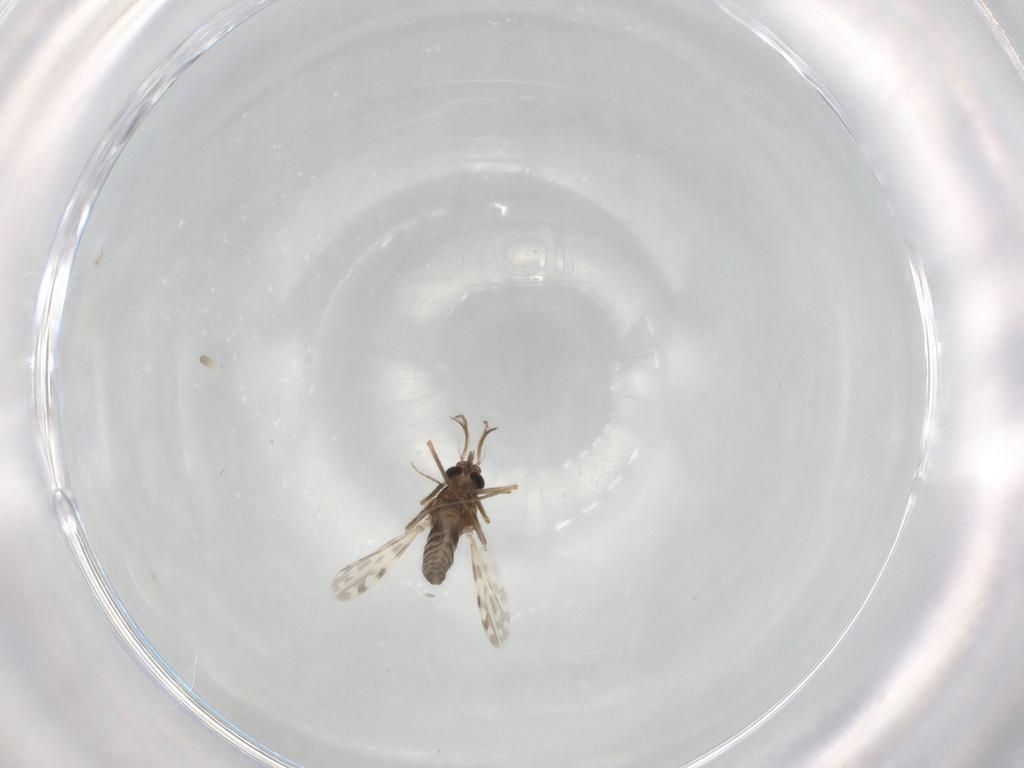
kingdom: Animalia
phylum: Arthropoda
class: Insecta
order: Diptera
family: Ceratopogonidae
